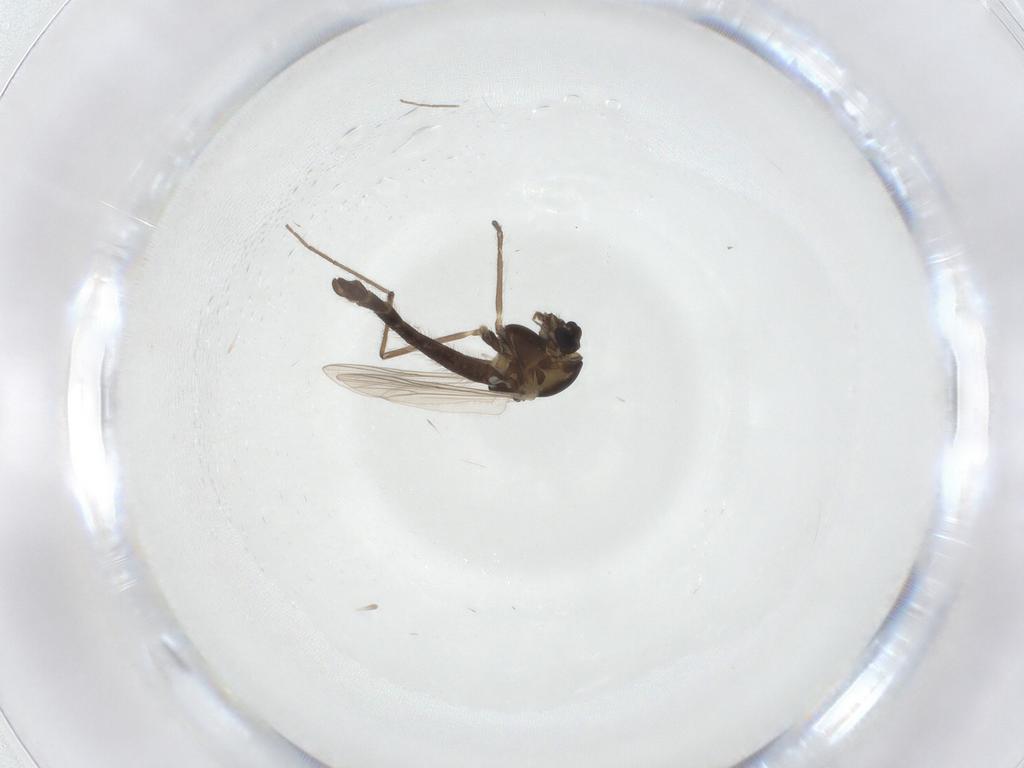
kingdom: Animalia
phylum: Arthropoda
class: Insecta
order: Diptera
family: Chironomidae
